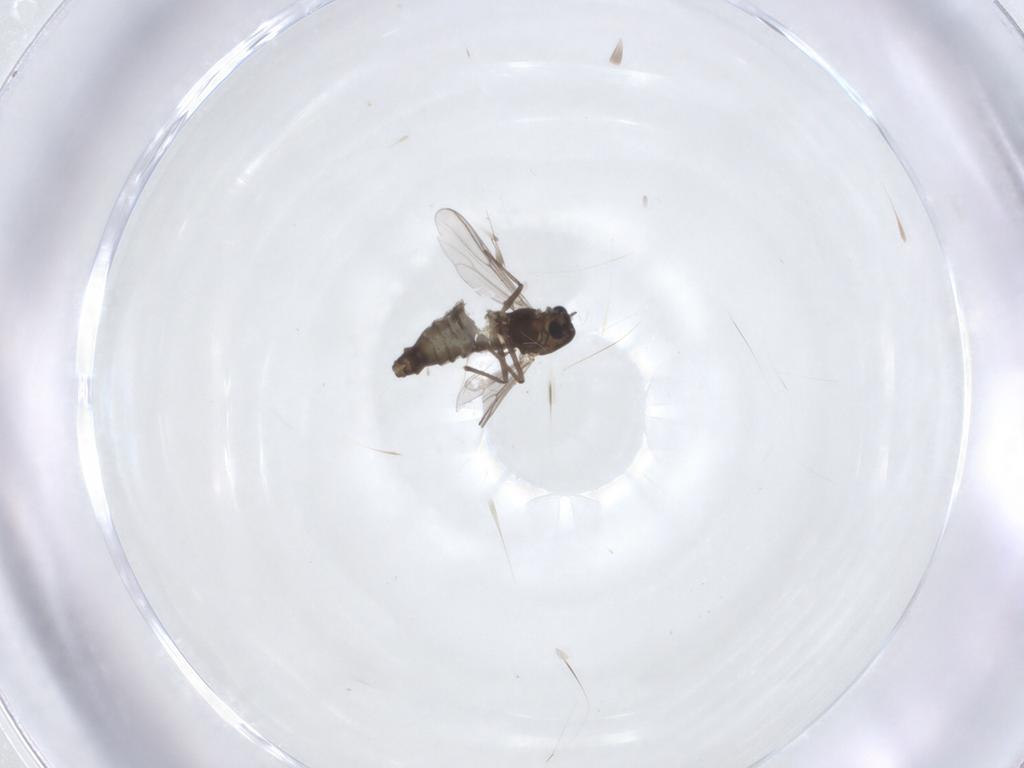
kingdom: Animalia
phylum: Arthropoda
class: Insecta
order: Diptera
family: Chironomidae
